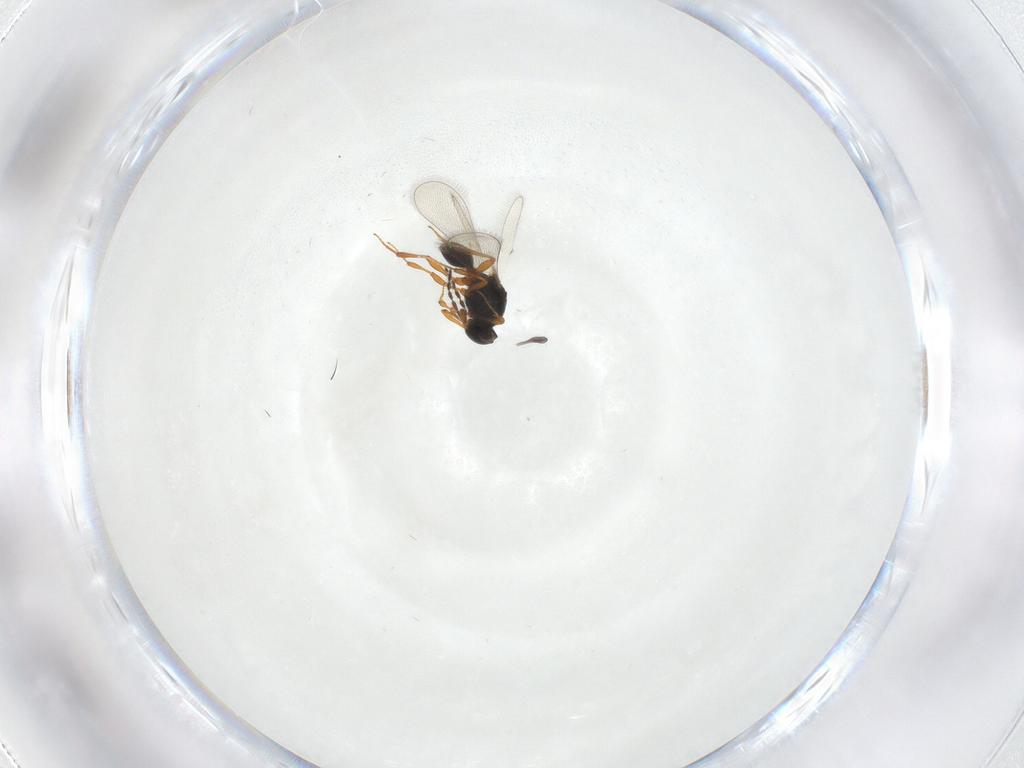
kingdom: Animalia
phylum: Arthropoda
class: Insecta
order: Hymenoptera
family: Platygastridae
